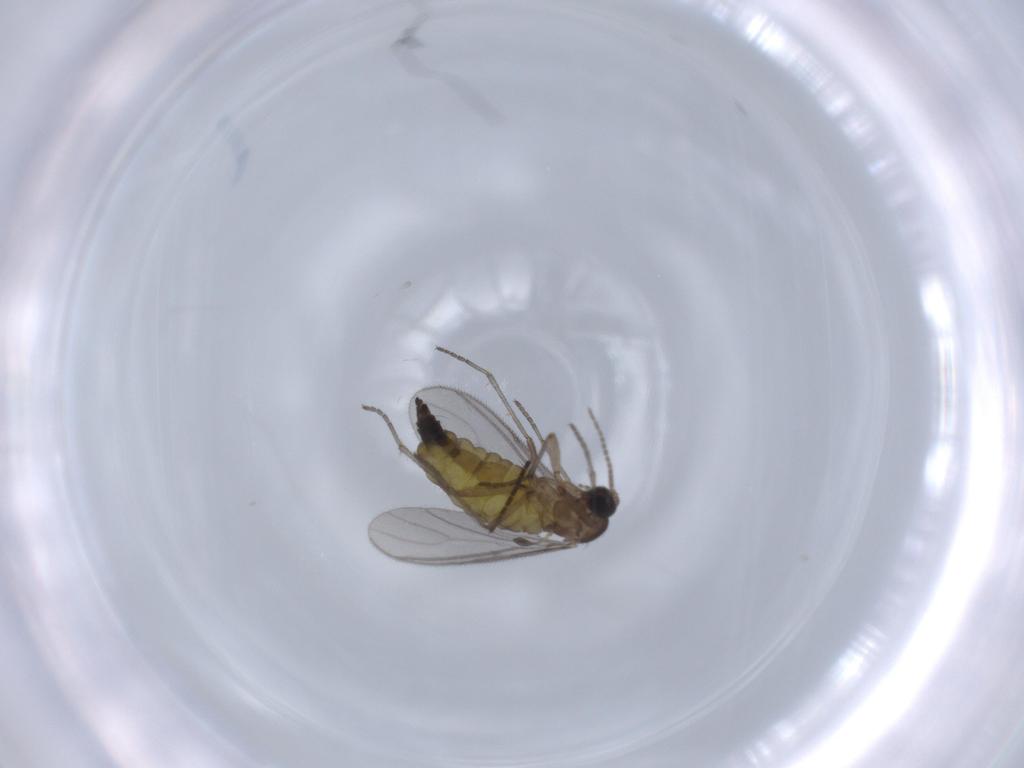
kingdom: Animalia
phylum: Arthropoda
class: Insecta
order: Diptera
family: Sciaridae
